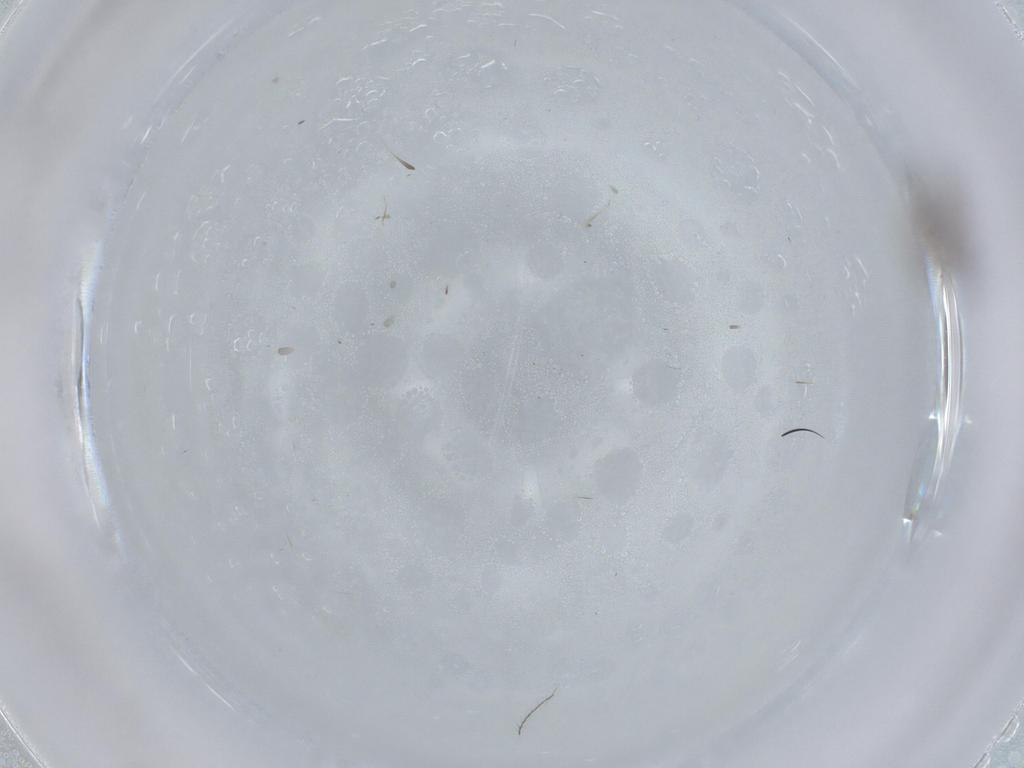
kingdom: Animalia
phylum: Arthropoda
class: Insecta
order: Hymenoptera
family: Diapriidae
